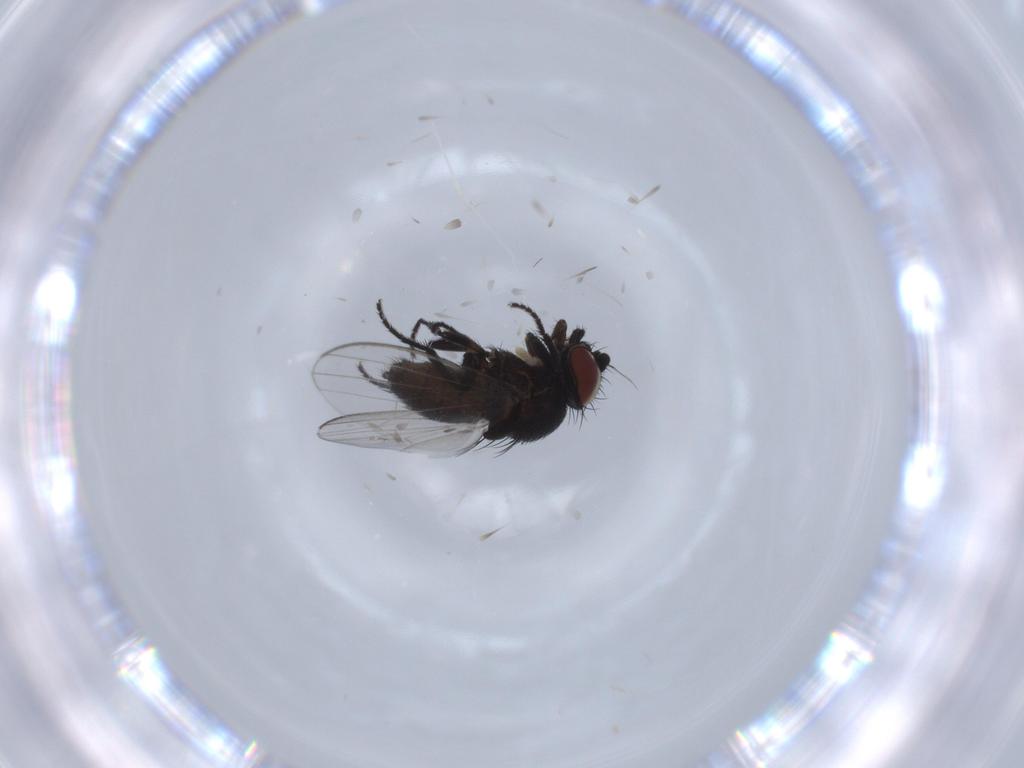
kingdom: Animalia
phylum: Arthropoda
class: Insecta
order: Diptera
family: Milichiidae
